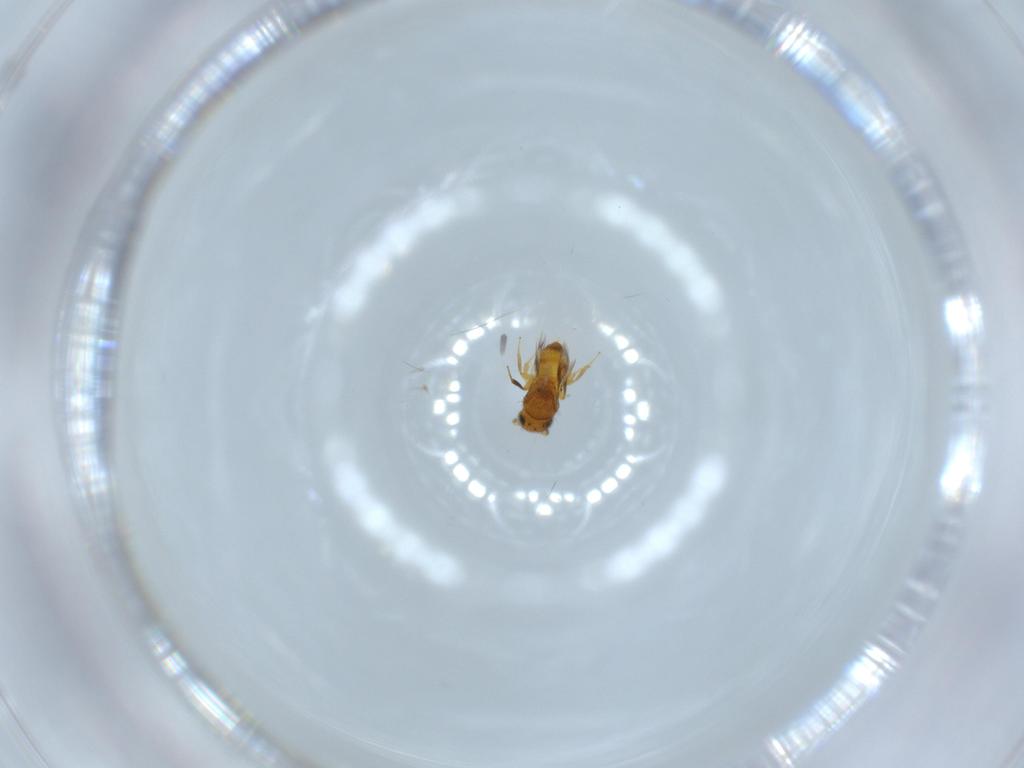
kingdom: Animalia
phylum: Arthropoda
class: Insecta
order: Hymenoptera
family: Scelionidae
